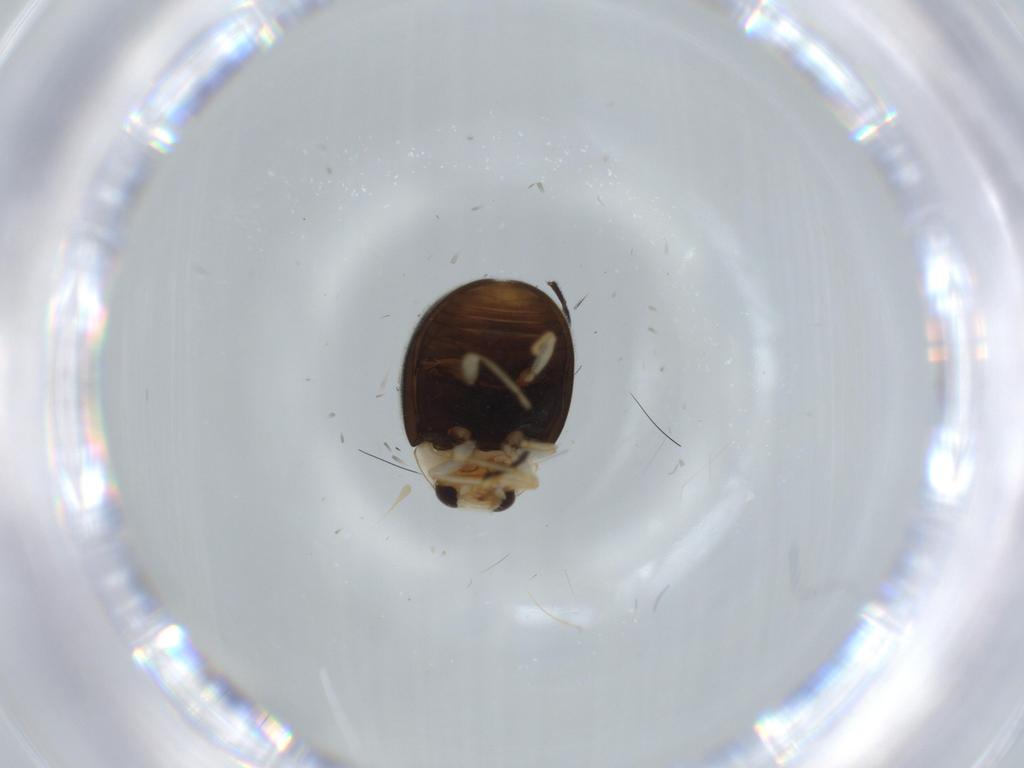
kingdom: Animalia
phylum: Arthropoda
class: Insecta
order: Coleoptera
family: Coccinellidae
